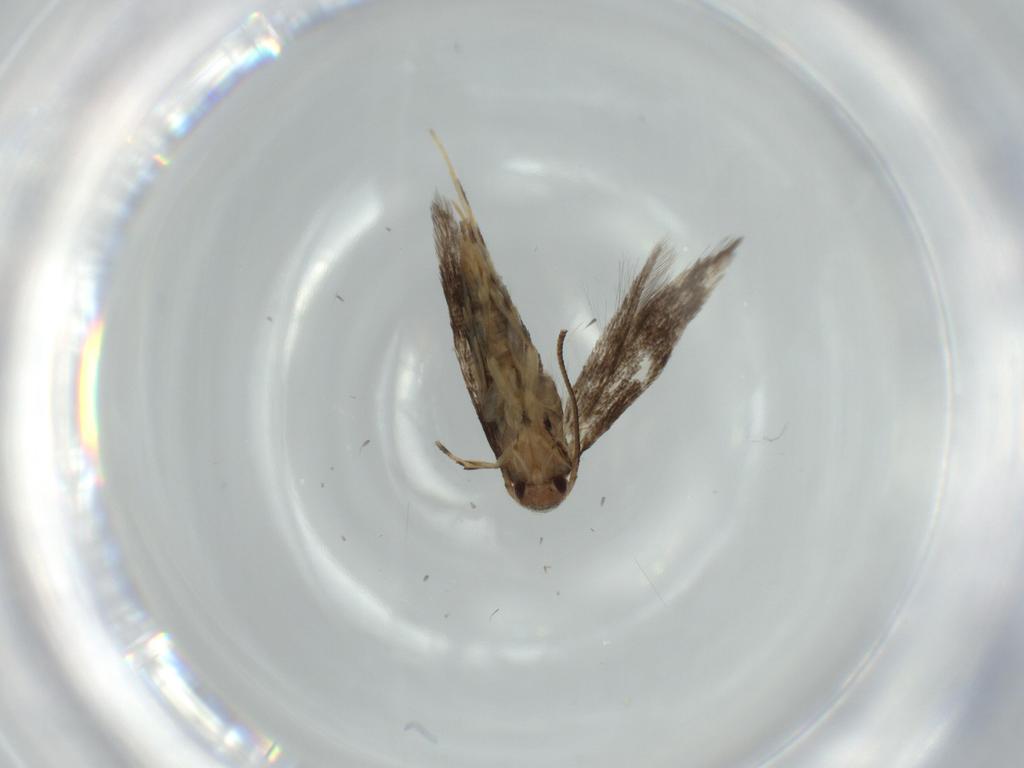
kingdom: Animalia
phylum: Arthropoda
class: Insecta
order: Lepidoptera
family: Cosmopterigidae
